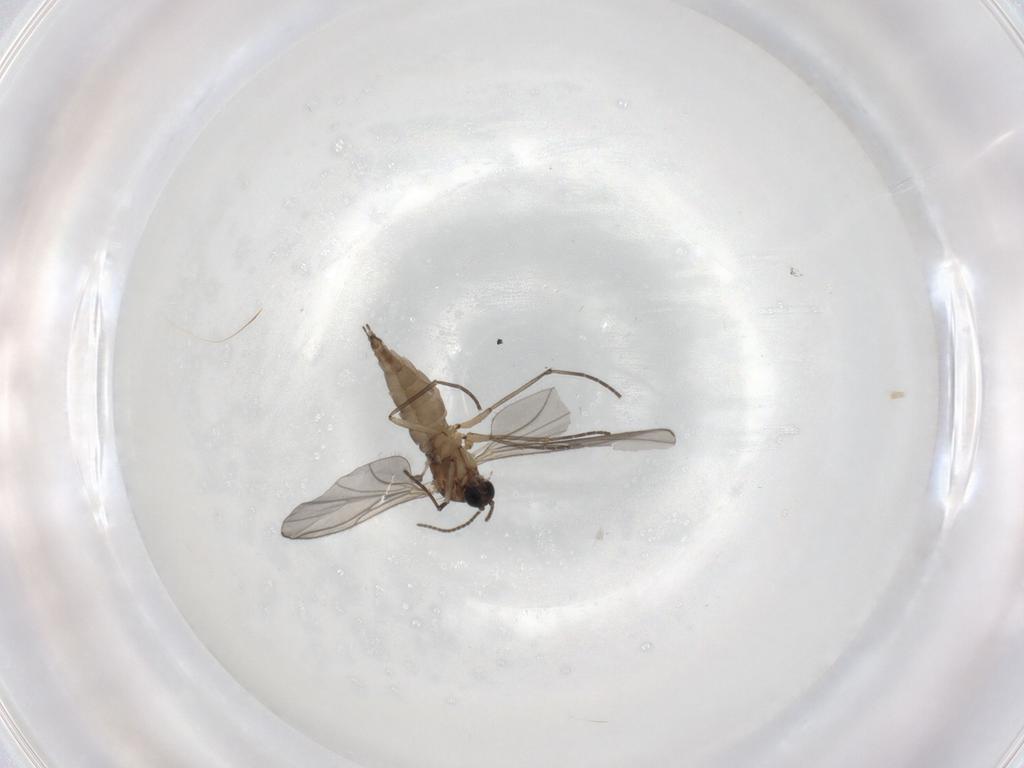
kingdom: Animalia
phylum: Arthropoda
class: Insecta
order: Diptera
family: Sciaridae
